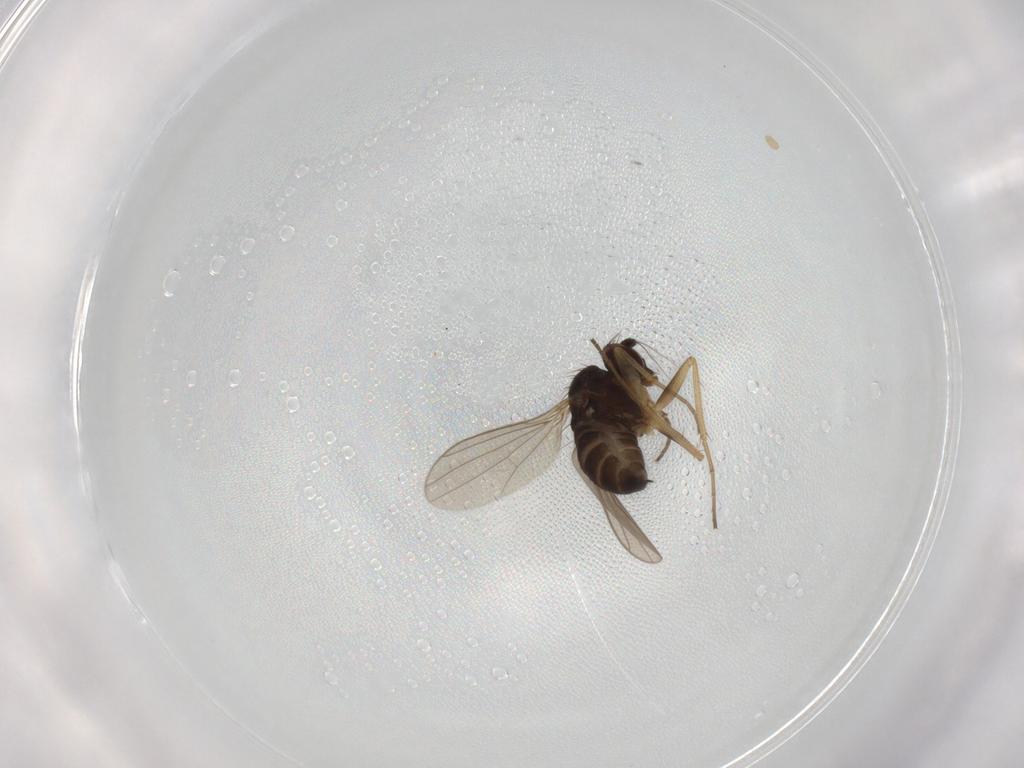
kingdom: Animalia
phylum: Arthropoda
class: Insecta
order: Diptera
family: Dolichopodidae
